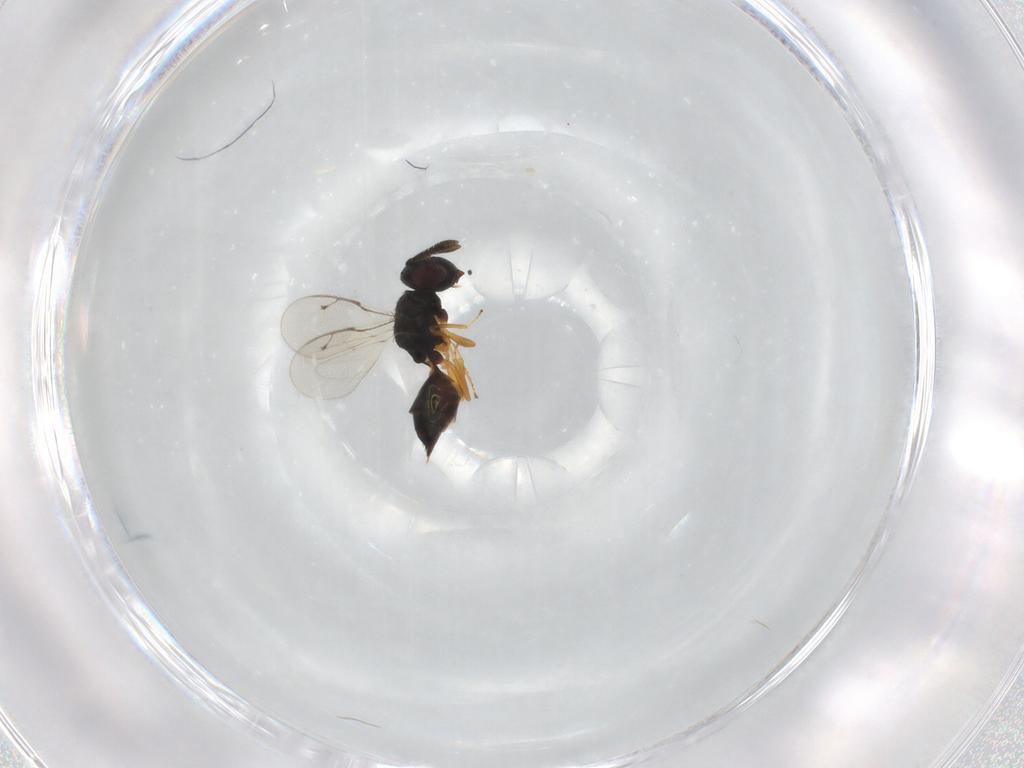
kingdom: Animalia
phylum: Arthropoda
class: Insecta
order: Hymenoptera
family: Pteromalidae
